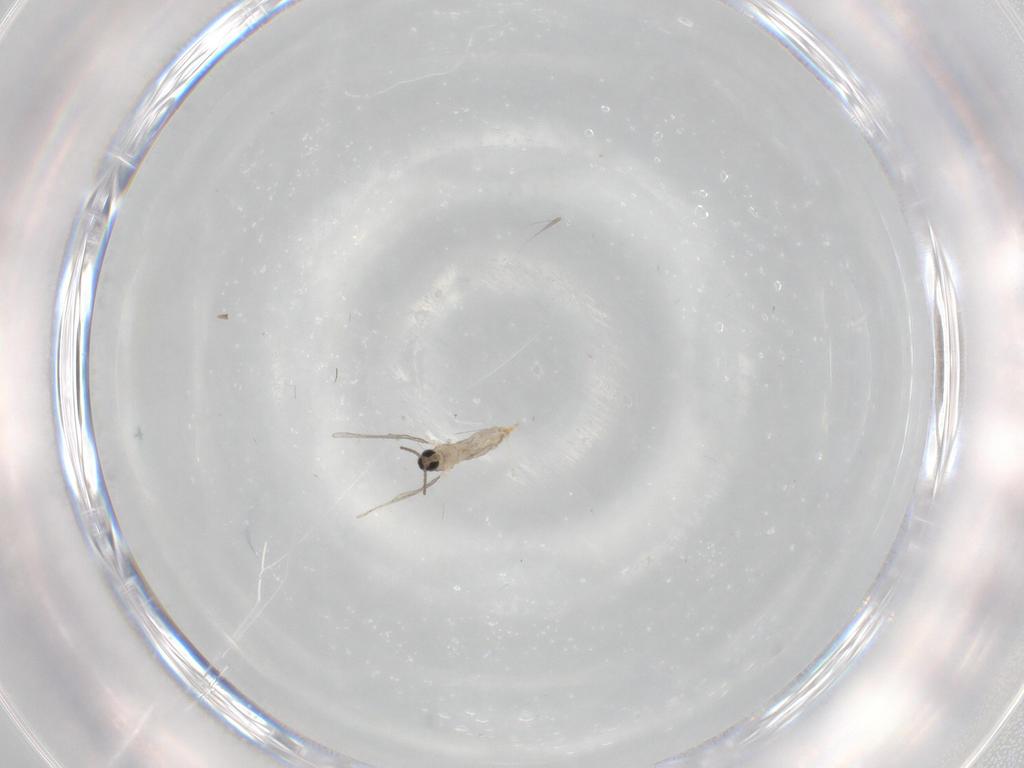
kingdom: Animalia
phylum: Arthropoda
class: Insecta
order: Diptera
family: Cecidomyiidae
